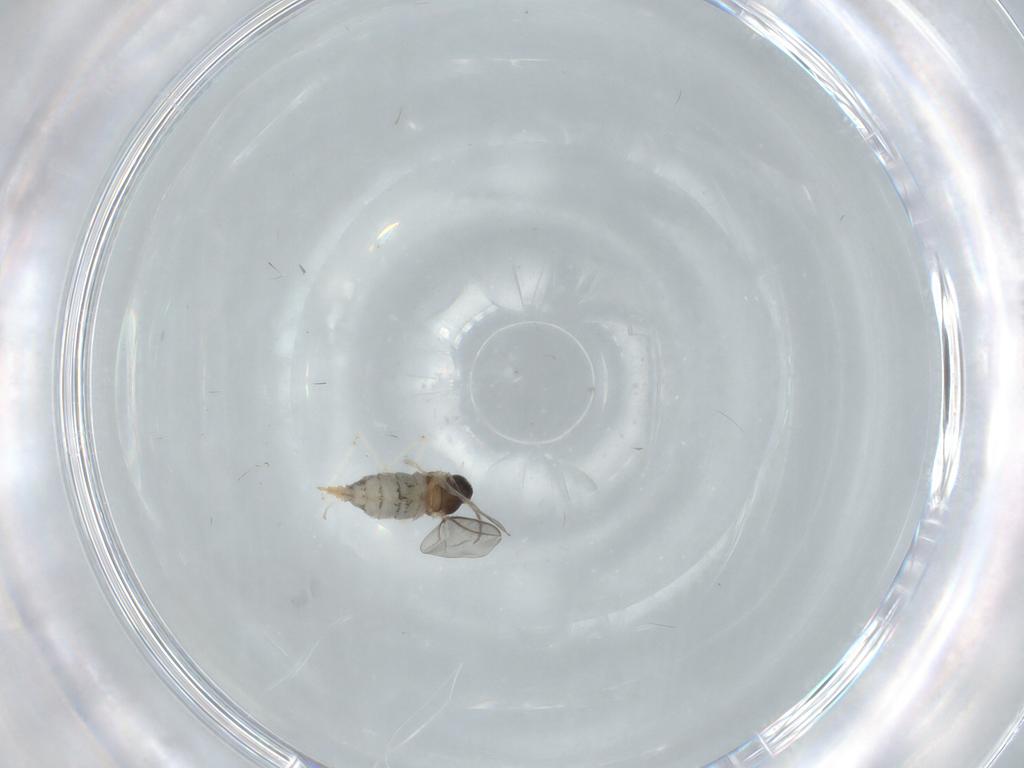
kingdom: Animalia
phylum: Arthropoda
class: Insecta
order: Diptera
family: Cecidomyiidae
